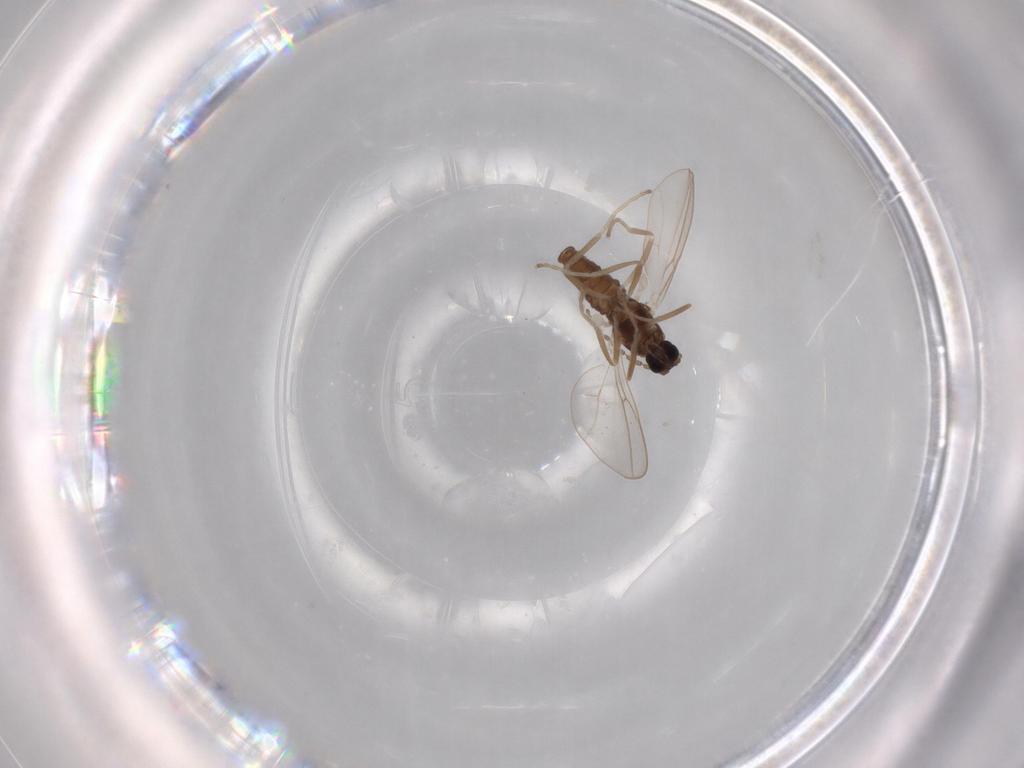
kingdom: Animalia
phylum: Arthropoda
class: Insecta
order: Diptera
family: Cecidomyiidae
